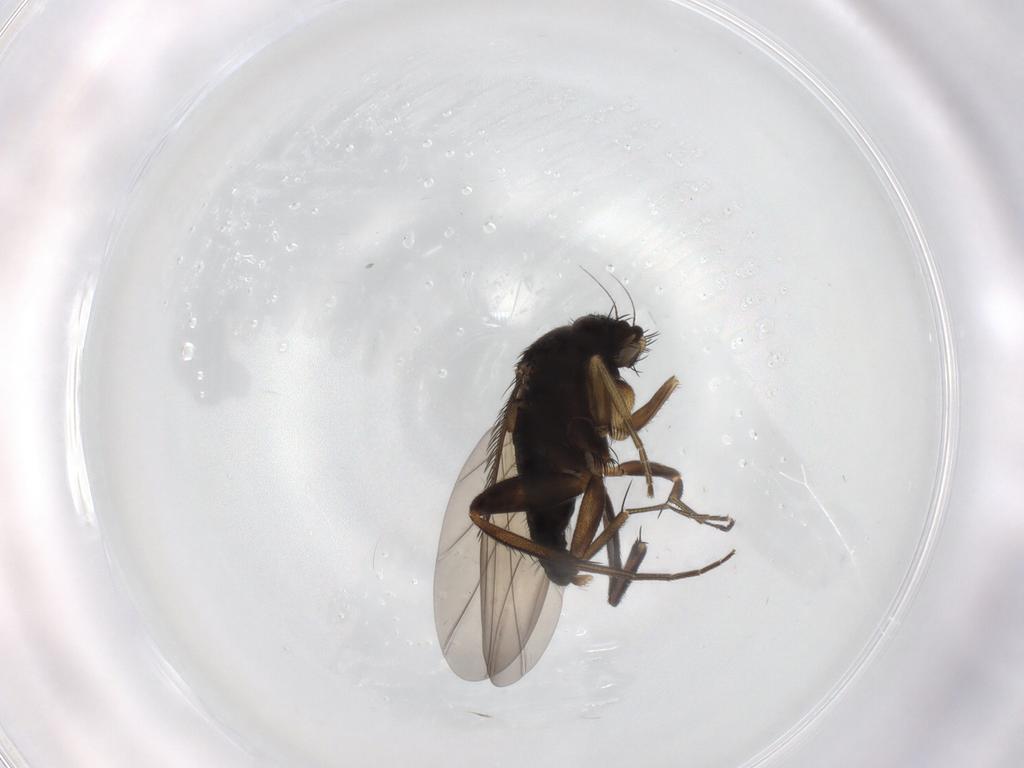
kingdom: Animalia
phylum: Arthropoda
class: Insecta
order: Diptera
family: Phoridae
